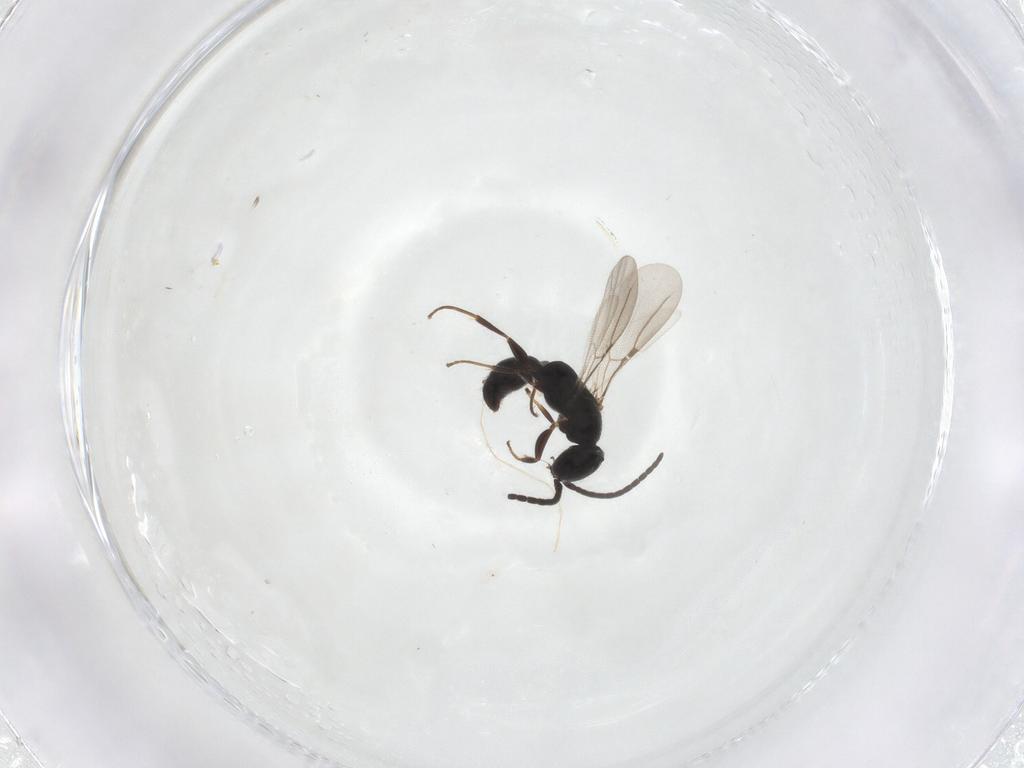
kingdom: Animalia
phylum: Arthropoda
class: Insecta
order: Hymenoptera
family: Bethylidae
